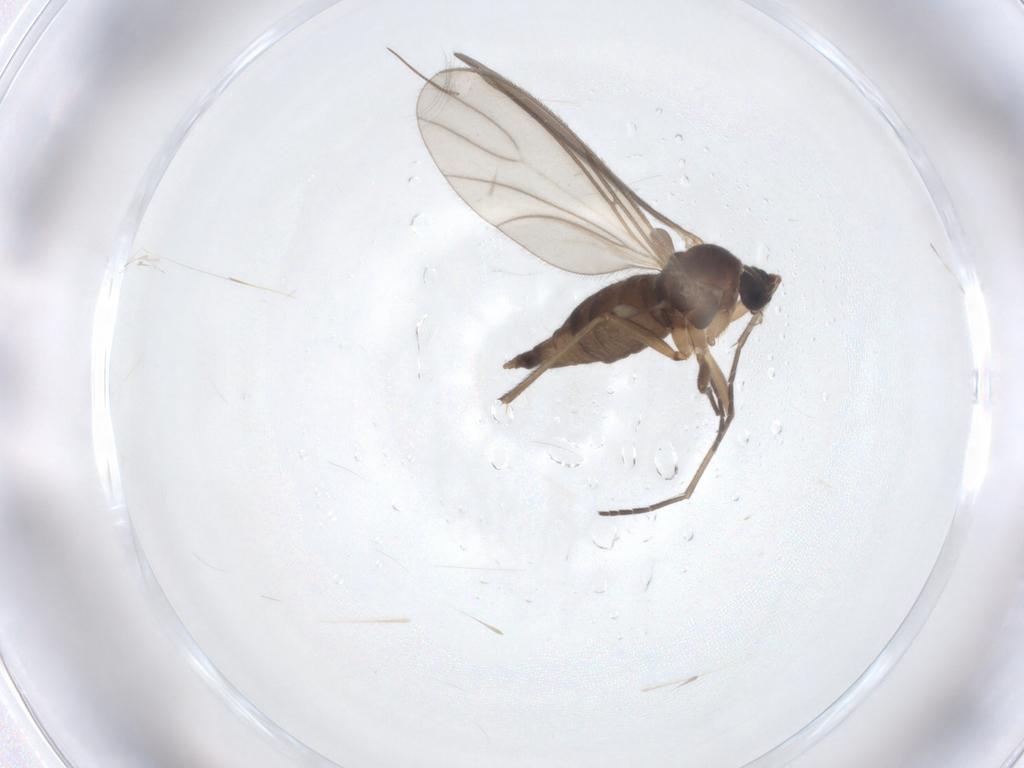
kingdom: Animalia
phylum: Arthropoda
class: Insecta
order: Diptera
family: Sciaridae
